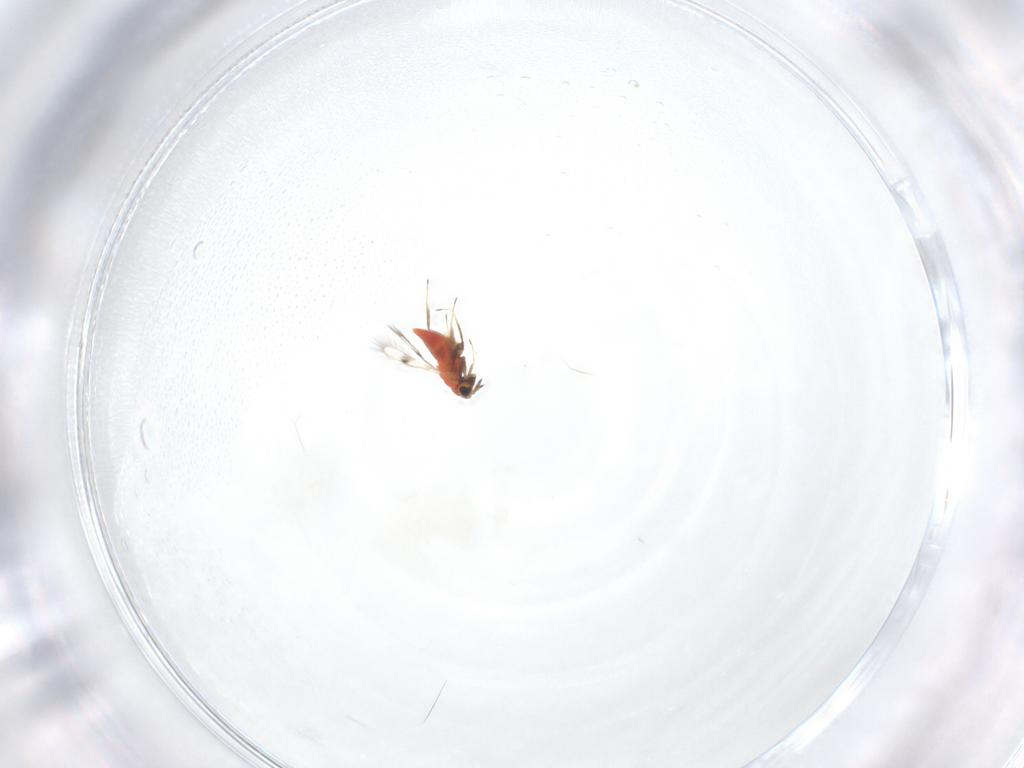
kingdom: Animalia
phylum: Arthropoda
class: Insecta
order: Hymenoptera
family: Trichogrammatidae
